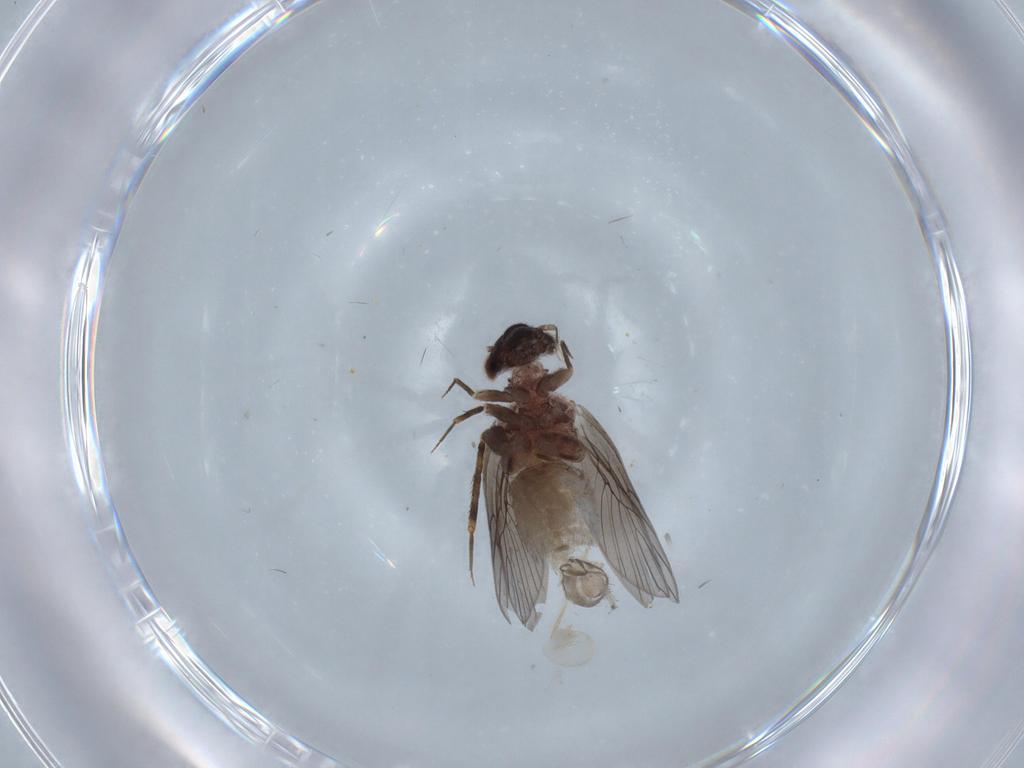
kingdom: Animalia
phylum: Arthropoda
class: Insecta
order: Psocodea
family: Lepidopsocidae
